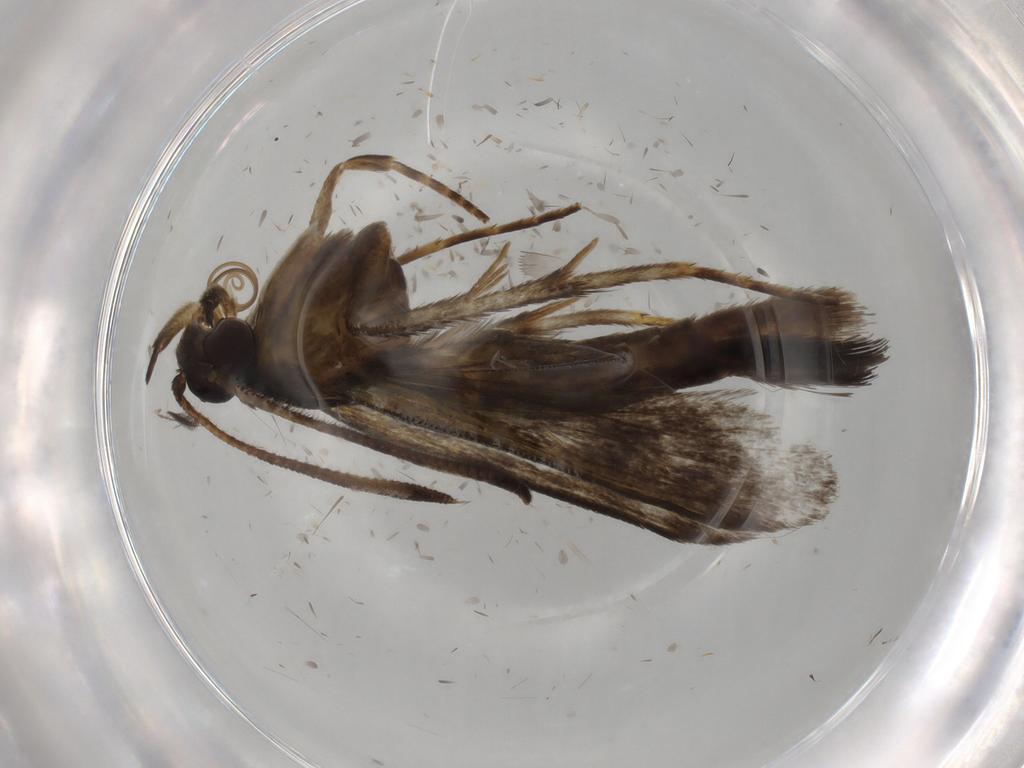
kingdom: Animalia
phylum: Arthropoda
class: Insecta
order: Lepidoptera
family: Sesiidae
